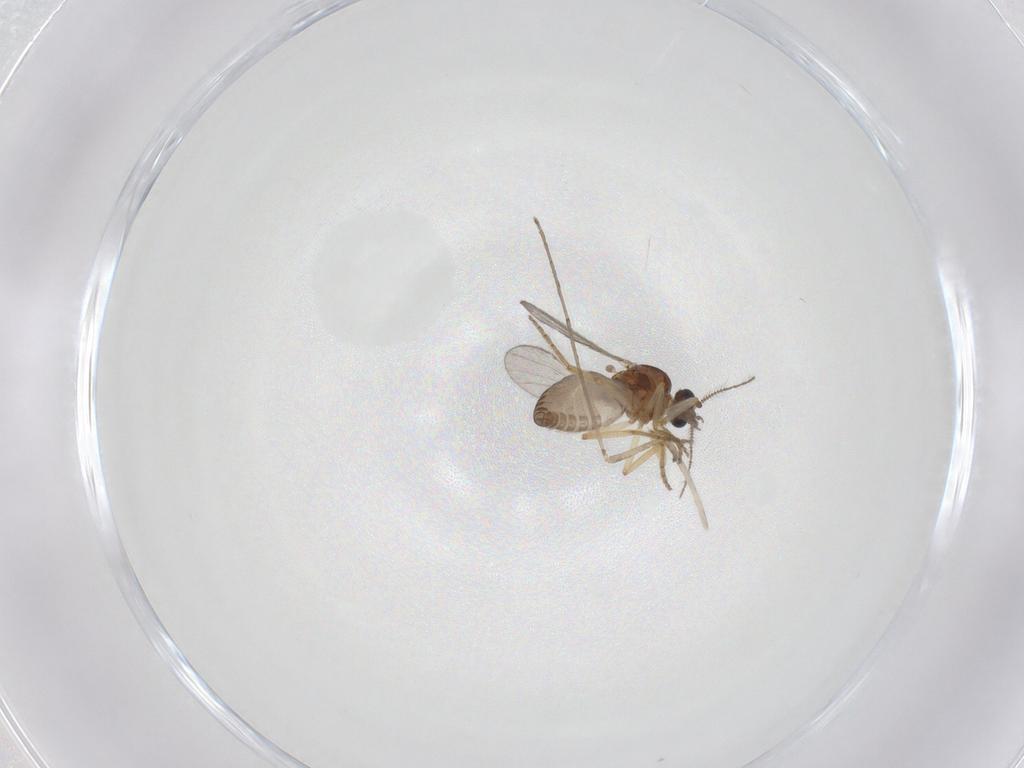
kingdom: Animalia
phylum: Arthropoda
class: Insecta
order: Diptera
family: Ceratopogonidae
